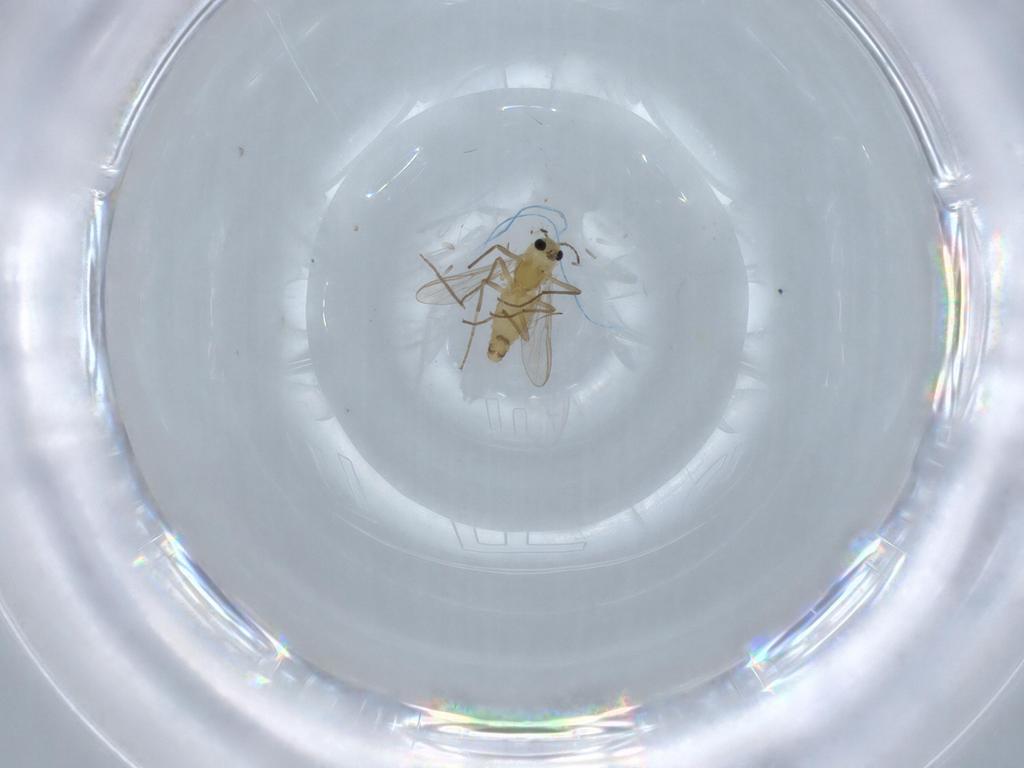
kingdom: Animalia
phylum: Arthropoda
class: Insecta
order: Diptera
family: Chironomidae
